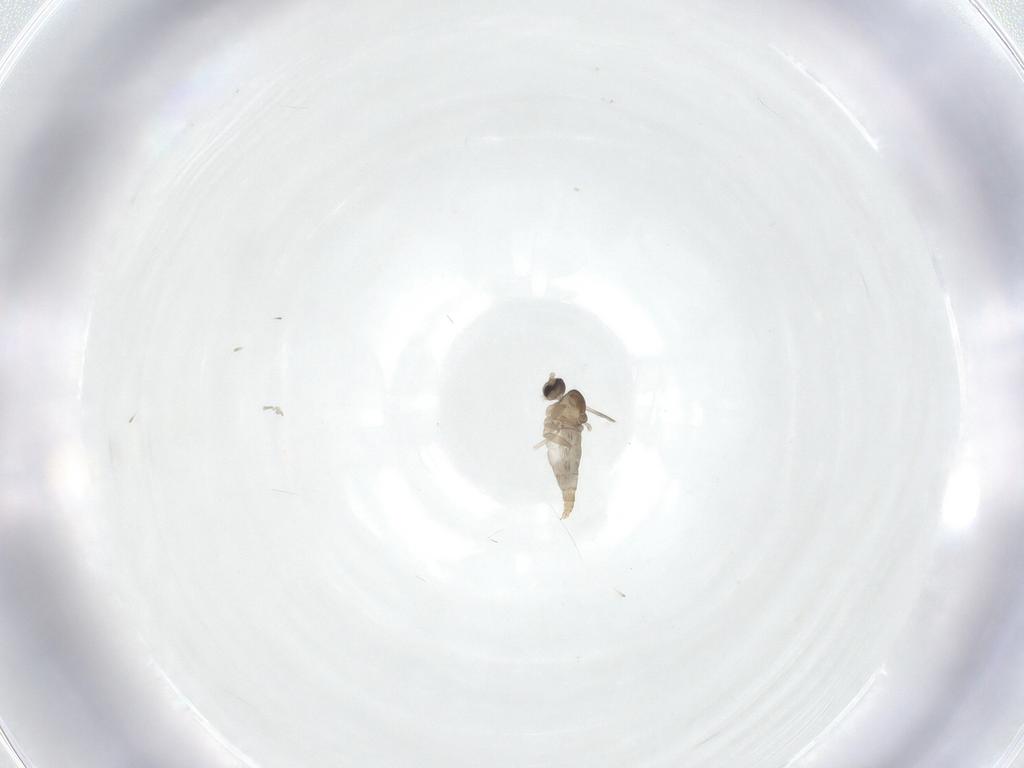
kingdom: Animalia
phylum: Arthropoda
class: Insecta
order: Diptera
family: Cecidomyiidae
